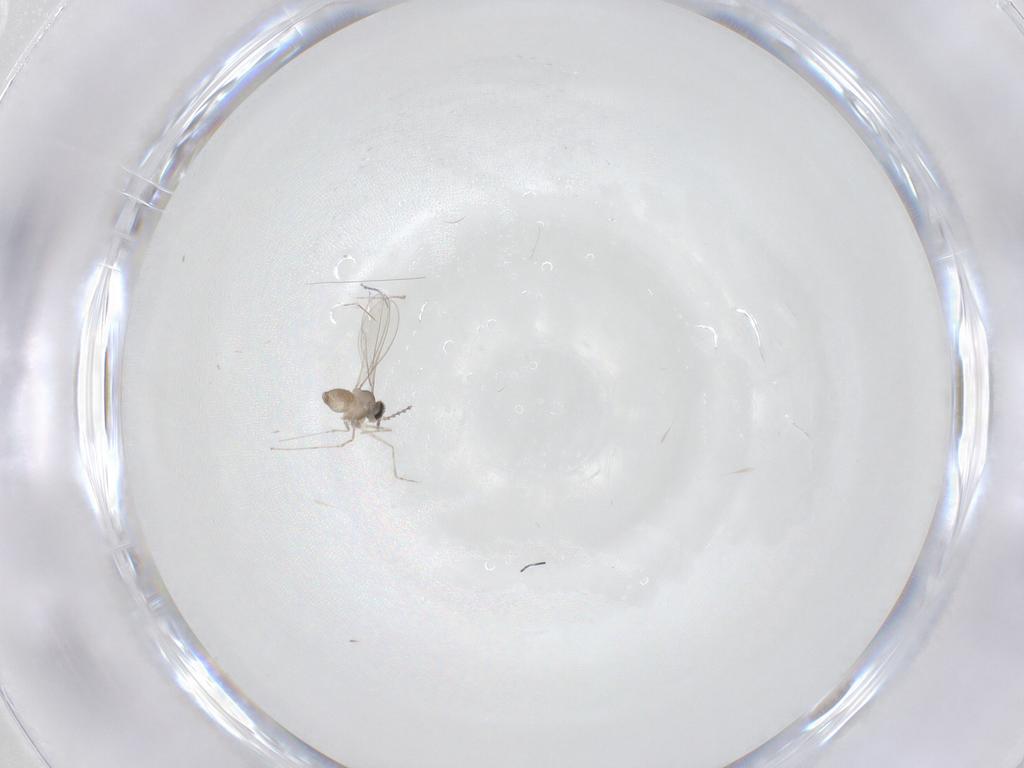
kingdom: Animalia
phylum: Arthropoda
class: Insecta
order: Diptera
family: Cecidomyiidae
